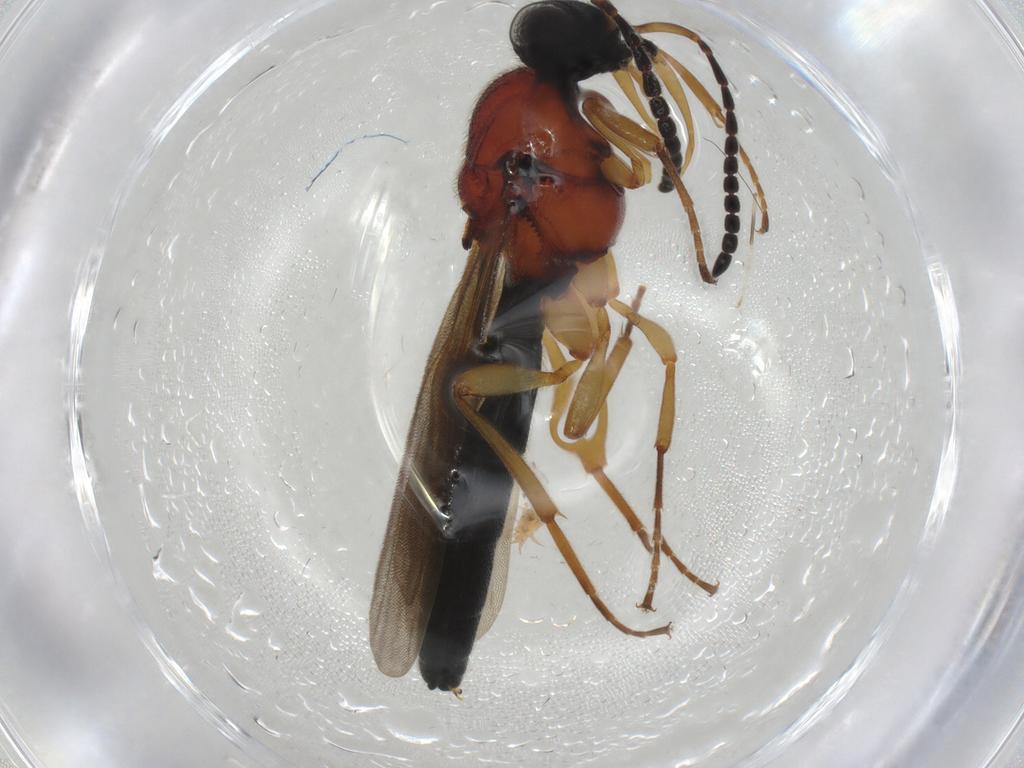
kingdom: Animalia
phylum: Arthropoda
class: Insecta
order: Hymenoptera
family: Scelionidae
